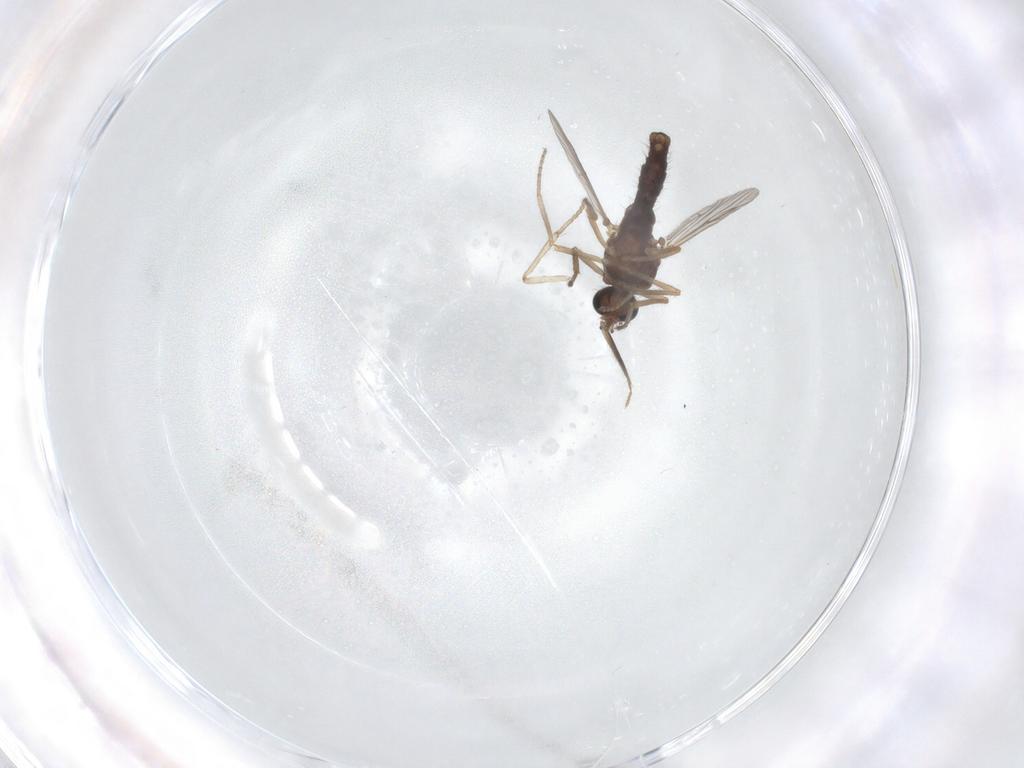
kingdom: Animalia
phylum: Arthropoda
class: Insecta
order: Diptera
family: Ceratopogonidae
